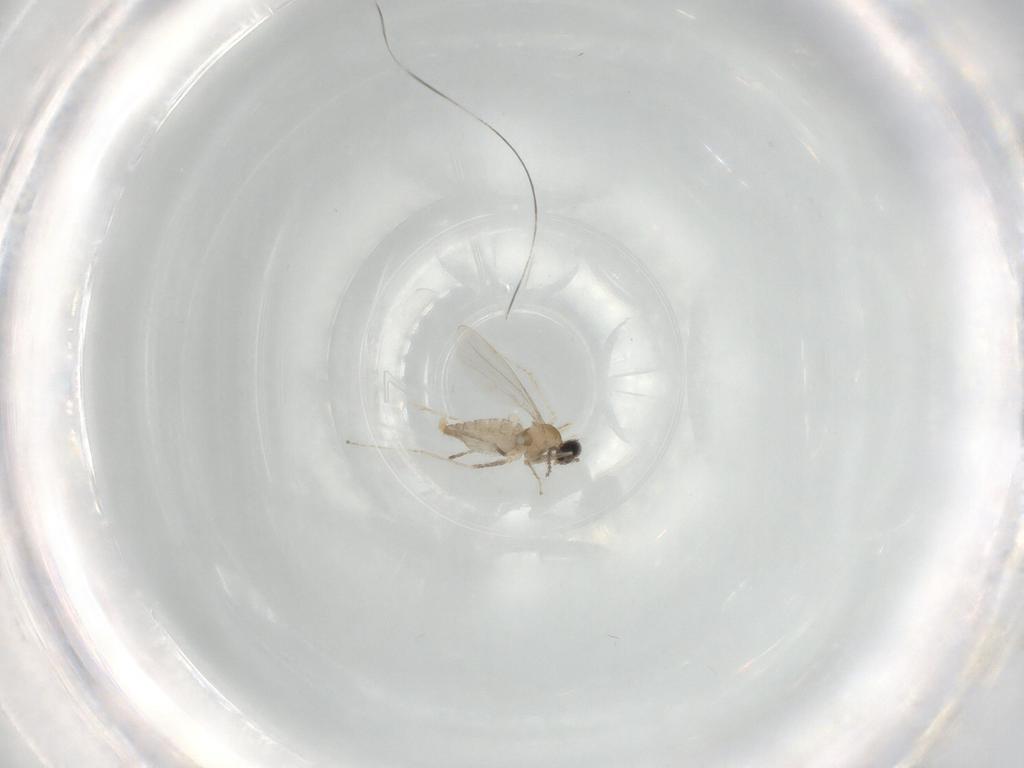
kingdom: Animalia
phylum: Arthropoda
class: Insecta
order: Diptera
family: Cecidomyiidae
